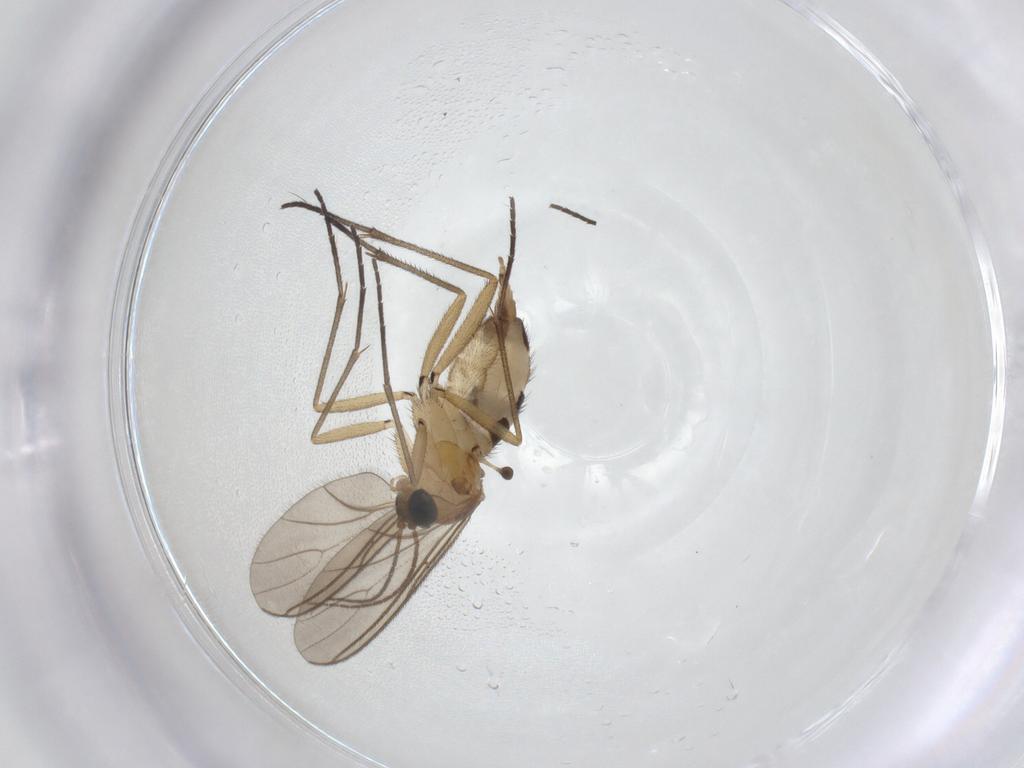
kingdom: Animalia
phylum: Arthropoda
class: Insecta
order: Diptera
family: Sciaridae
